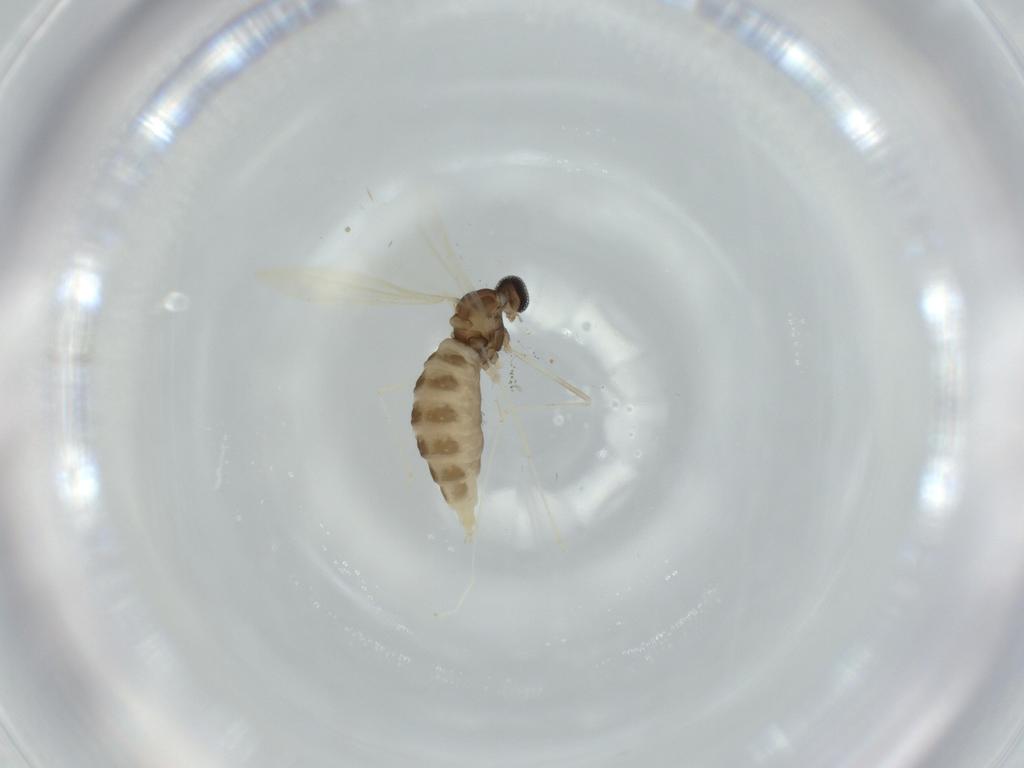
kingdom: Animalia
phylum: Arthropoda
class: Insecta
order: Diptera
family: Cecidomyiidae
